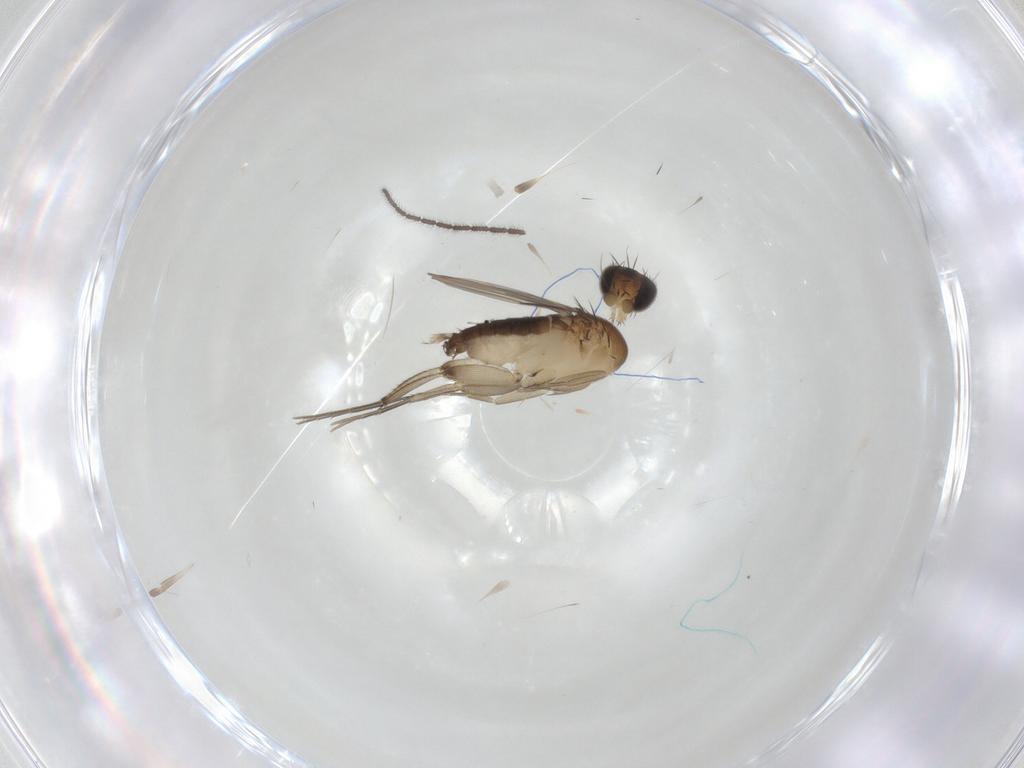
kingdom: Animalia
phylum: Arthropoda
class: Insecta
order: Diptera
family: Phoridae
